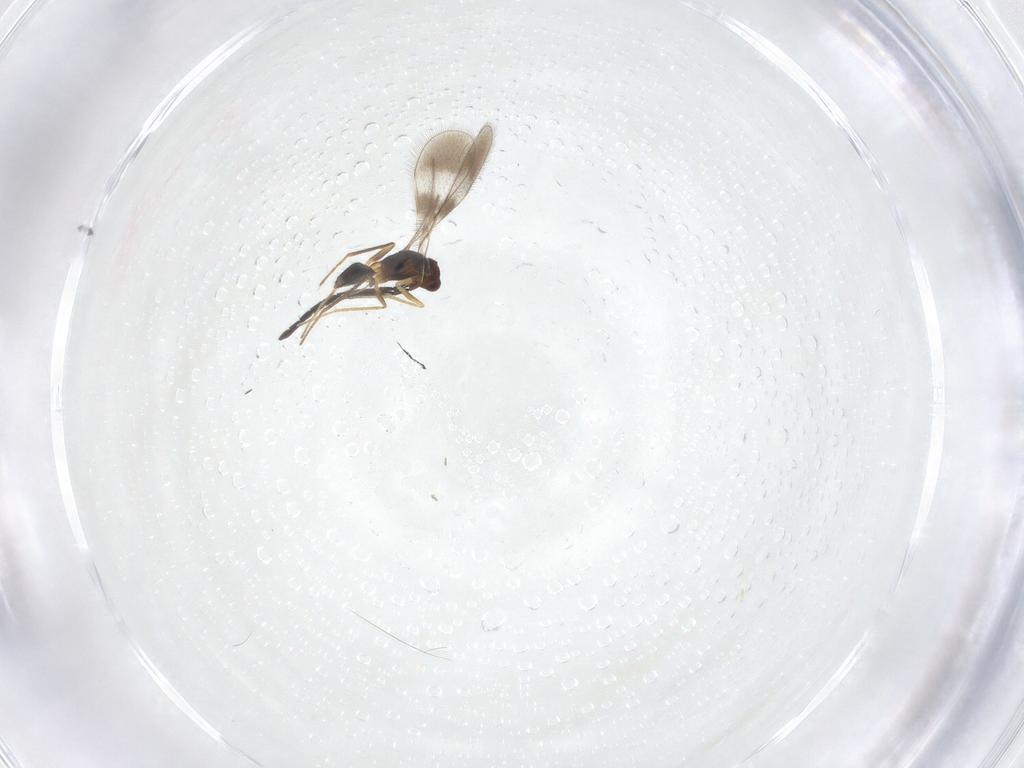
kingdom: Animalia
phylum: Arthropoda
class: Insecta
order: Hymenoptera
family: Mymaridae
